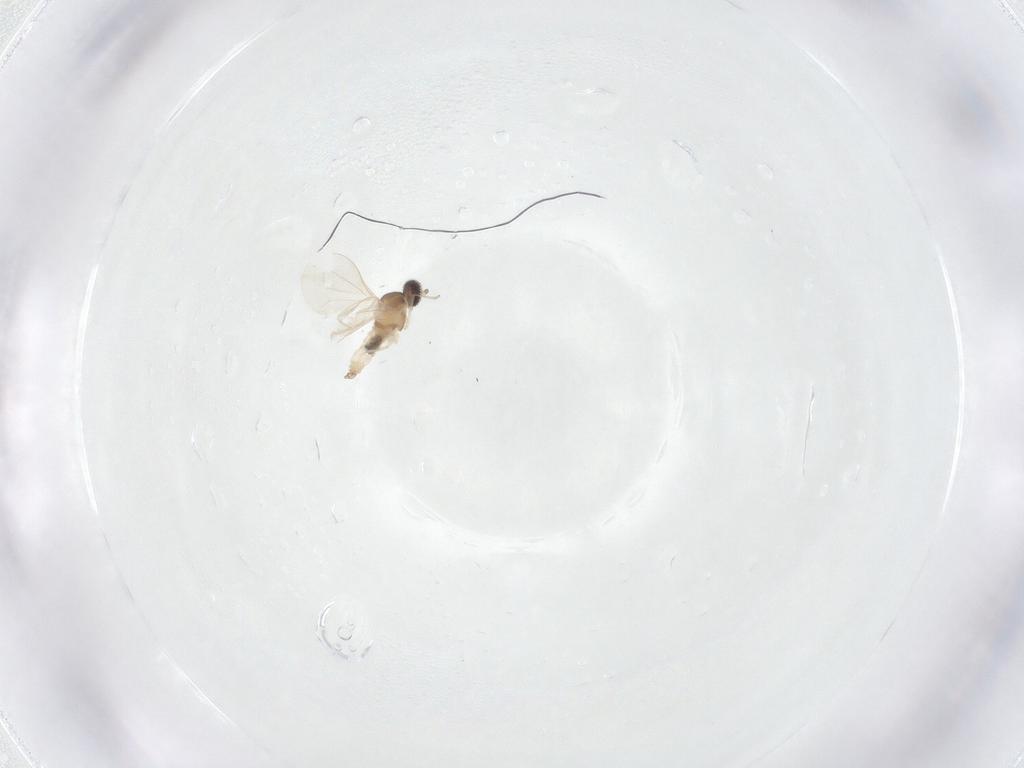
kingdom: Animalia
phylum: Arthropoda
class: Insecta
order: Diptera
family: Cecidomyiidae
